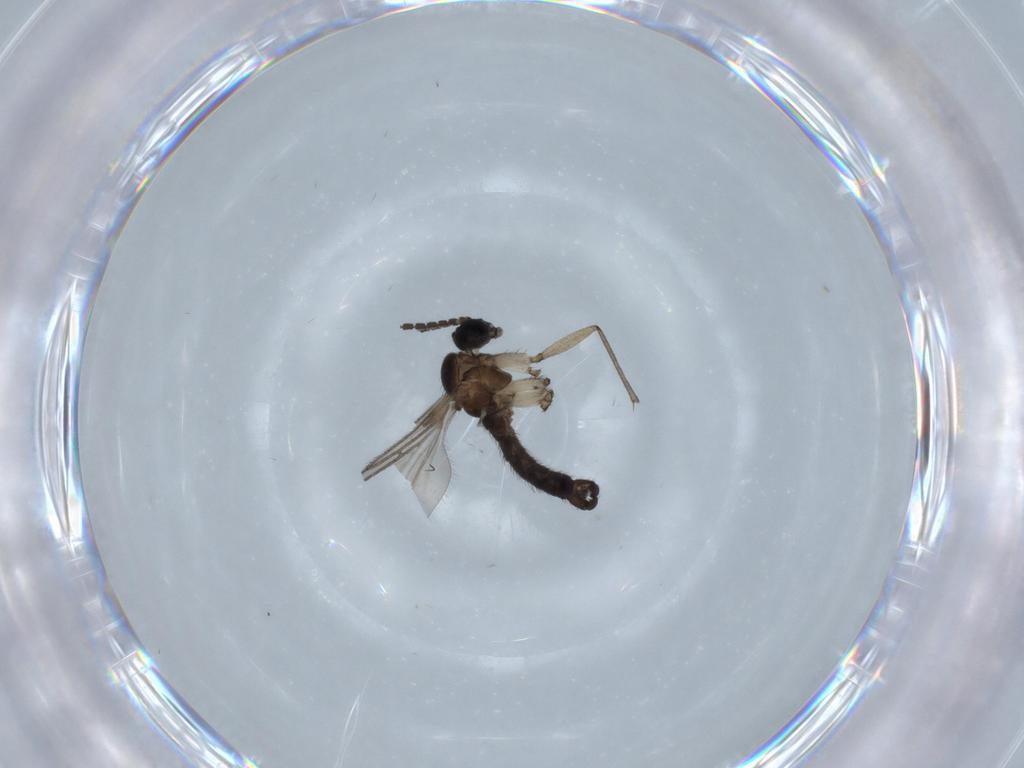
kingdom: Animalia
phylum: Arthropoda
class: Insecta
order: Diptera
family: Sciaridae
